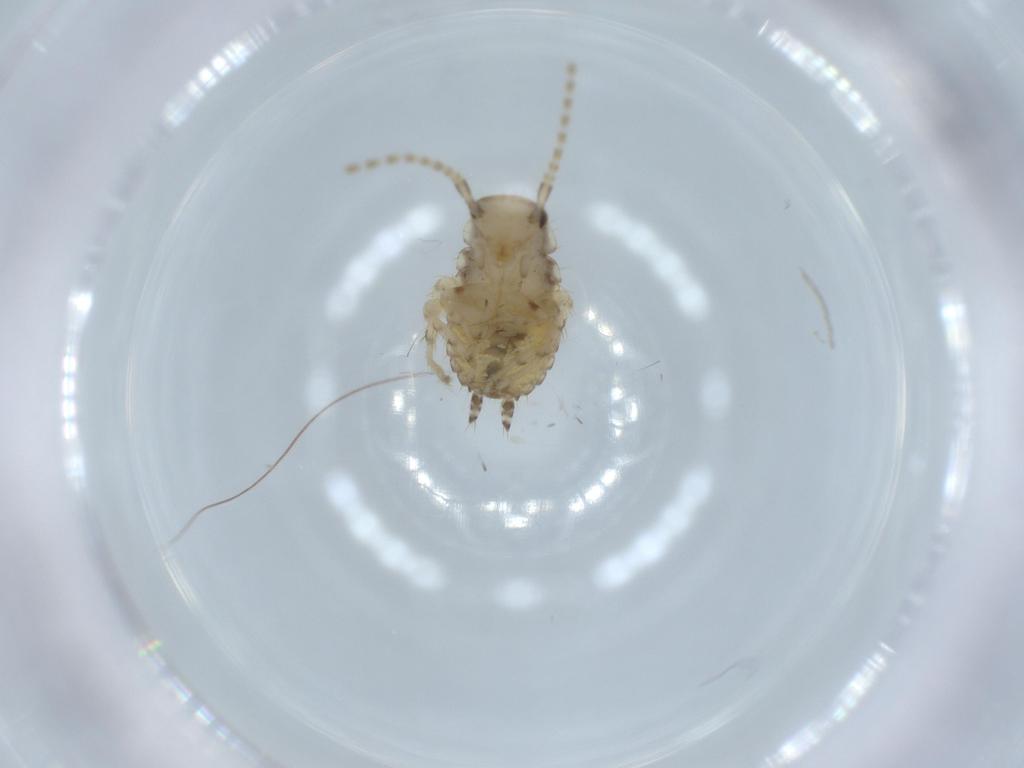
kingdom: Animalia
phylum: Arthropoda
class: Insecta
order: Blattodea
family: Ectobiidae
